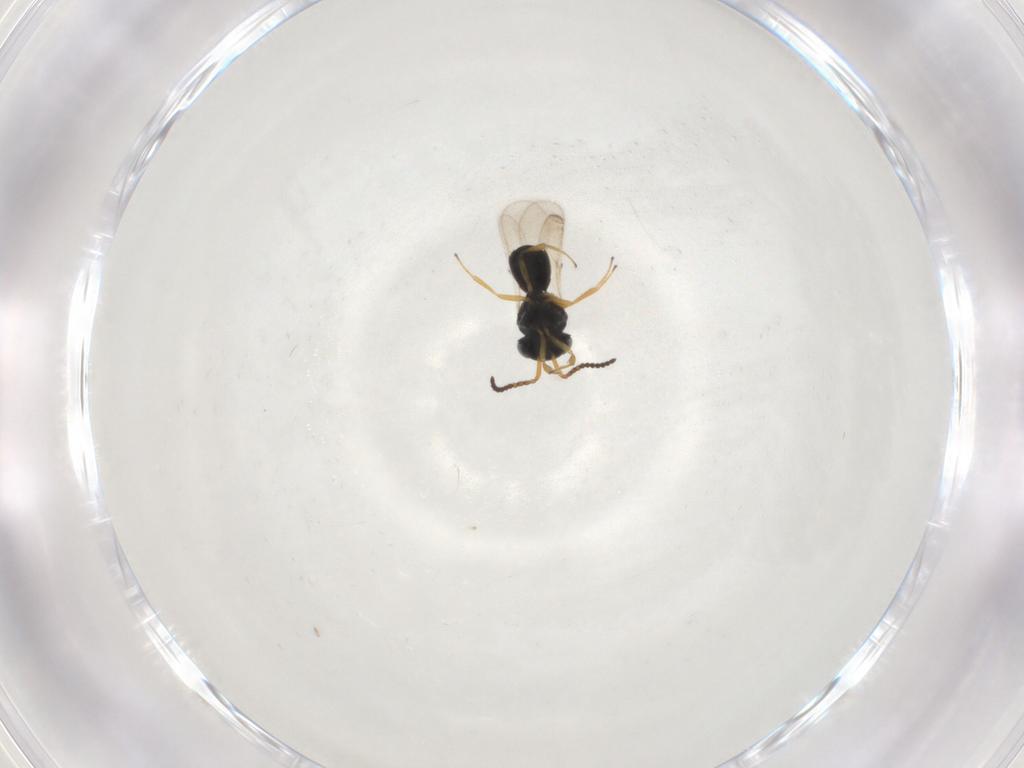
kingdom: Animalia
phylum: Arthropoda
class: Insecta
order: Hymenoptera
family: Scelionidae
